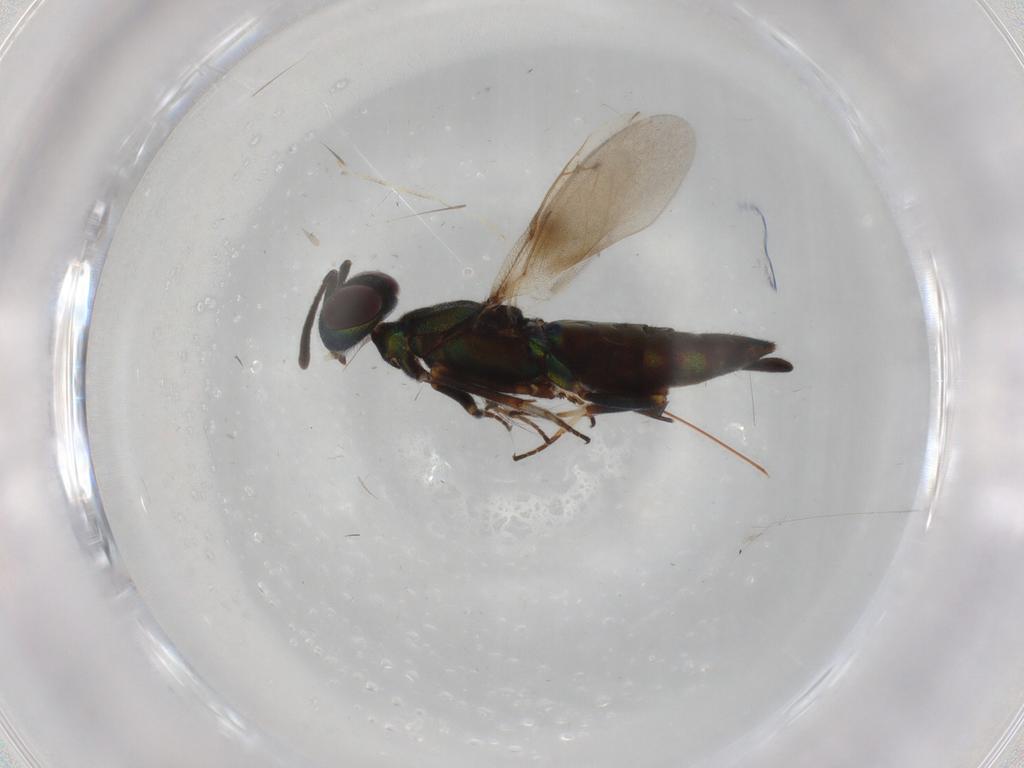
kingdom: Animalia
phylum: Arthropoda
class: Insecta
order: Hymenoptera
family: Eupelmidae
